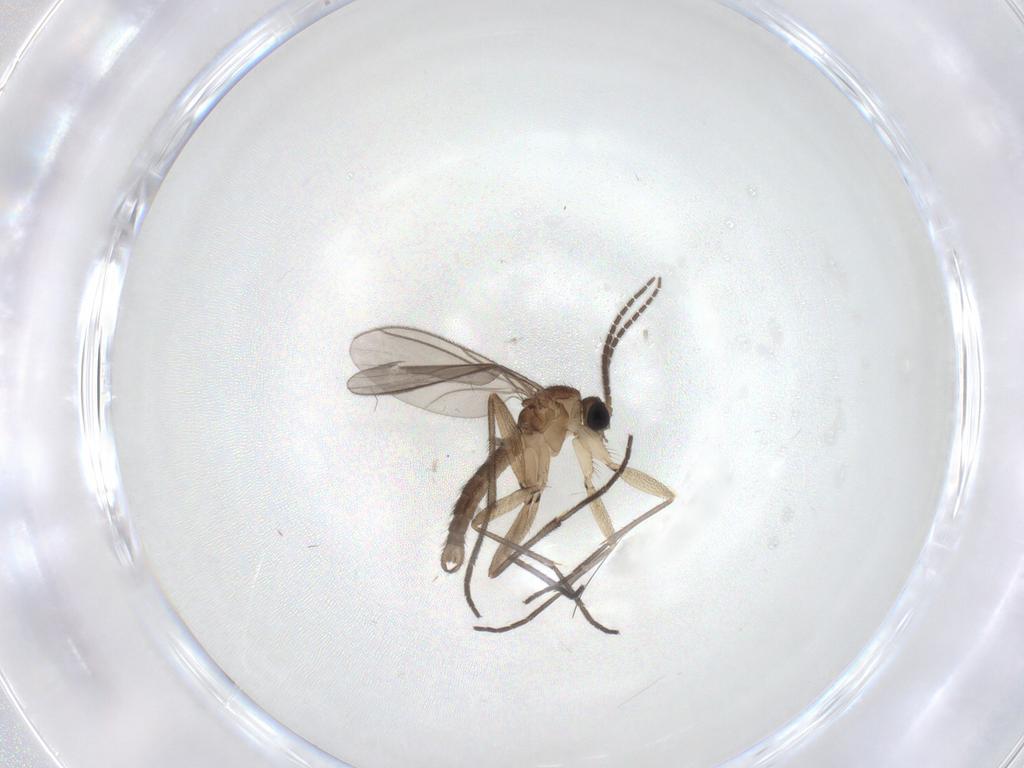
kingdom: Animalia
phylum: Arthropoda
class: Insecta
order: Diptera
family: Sciaridae
